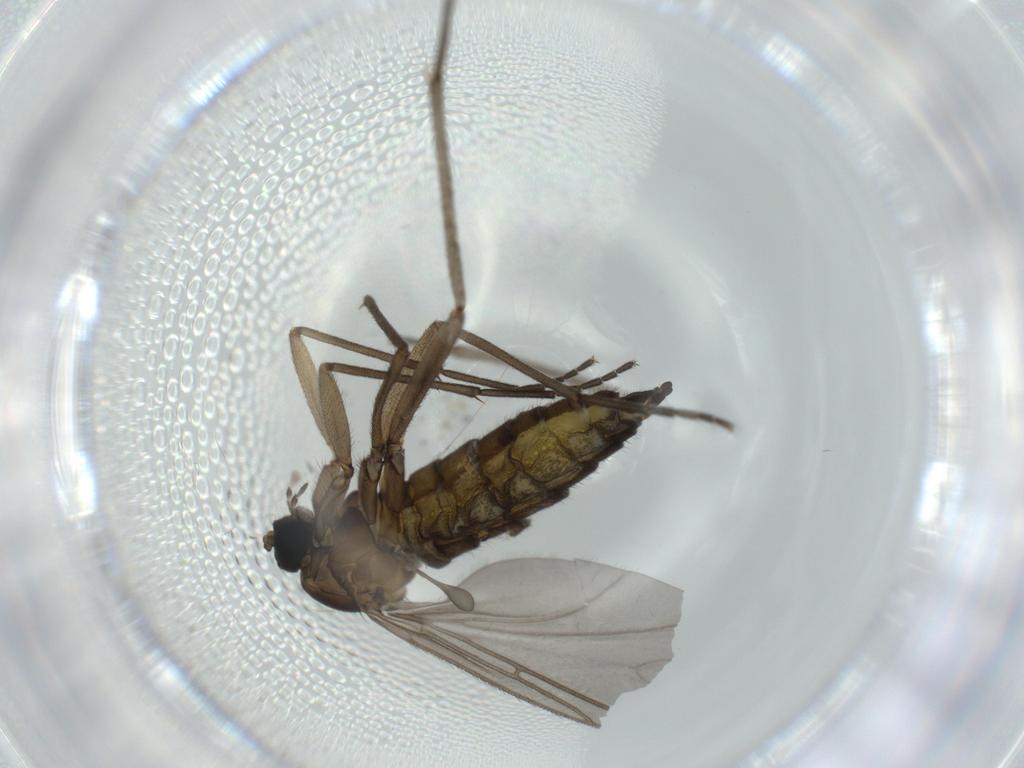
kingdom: Animalia
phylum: Arthropoda
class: Insecta
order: Diptera
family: Sciaridae
